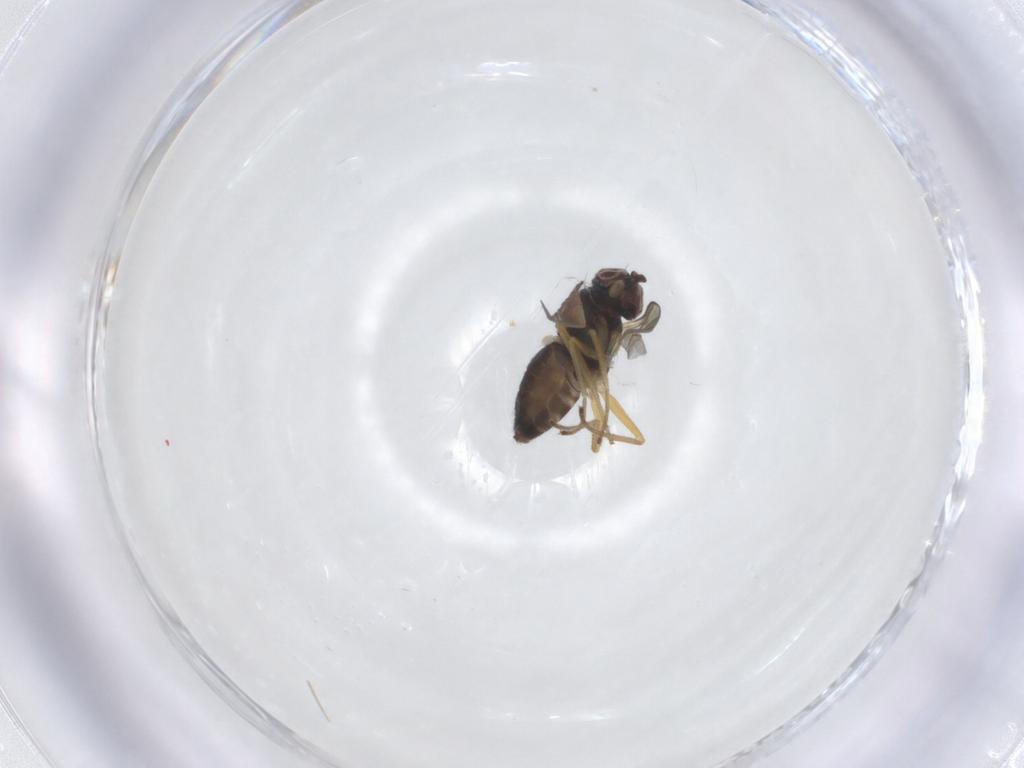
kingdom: Animalia
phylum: Arthropoda
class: Insecta
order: Diptera
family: Dolichopodidae
